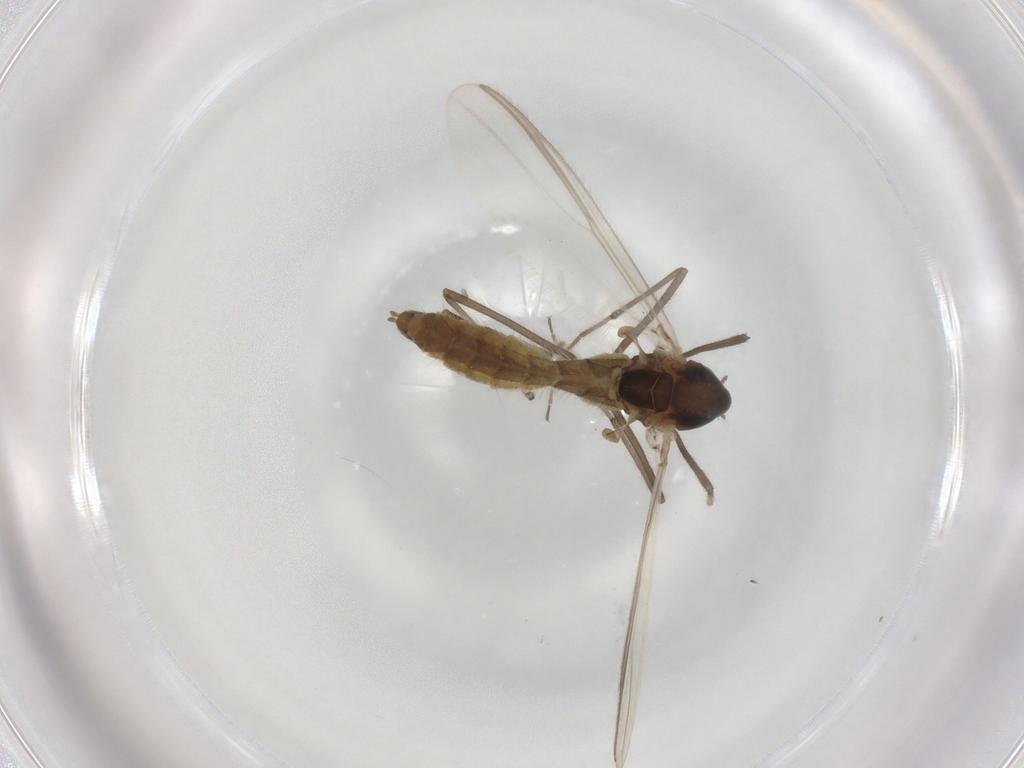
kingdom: Animalia
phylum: Arthropoda
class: Insecta
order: Diptera
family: Chironomidae
